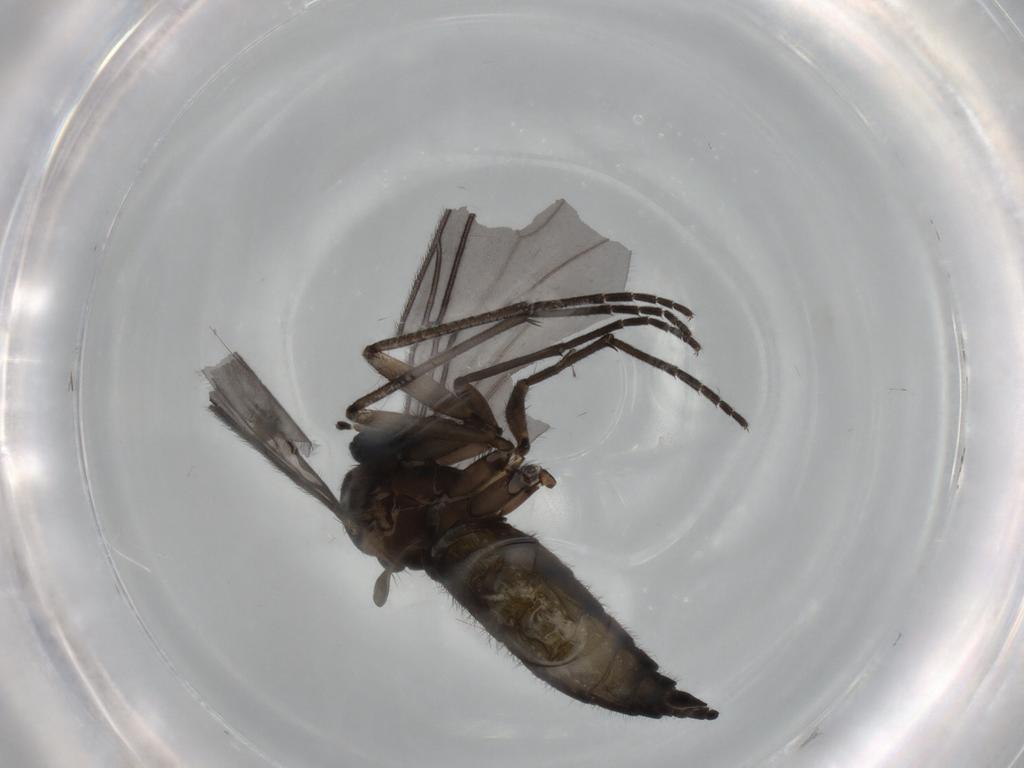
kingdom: Animalia
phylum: Arthropoda
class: Insecta
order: Diptera
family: Sciaridae
